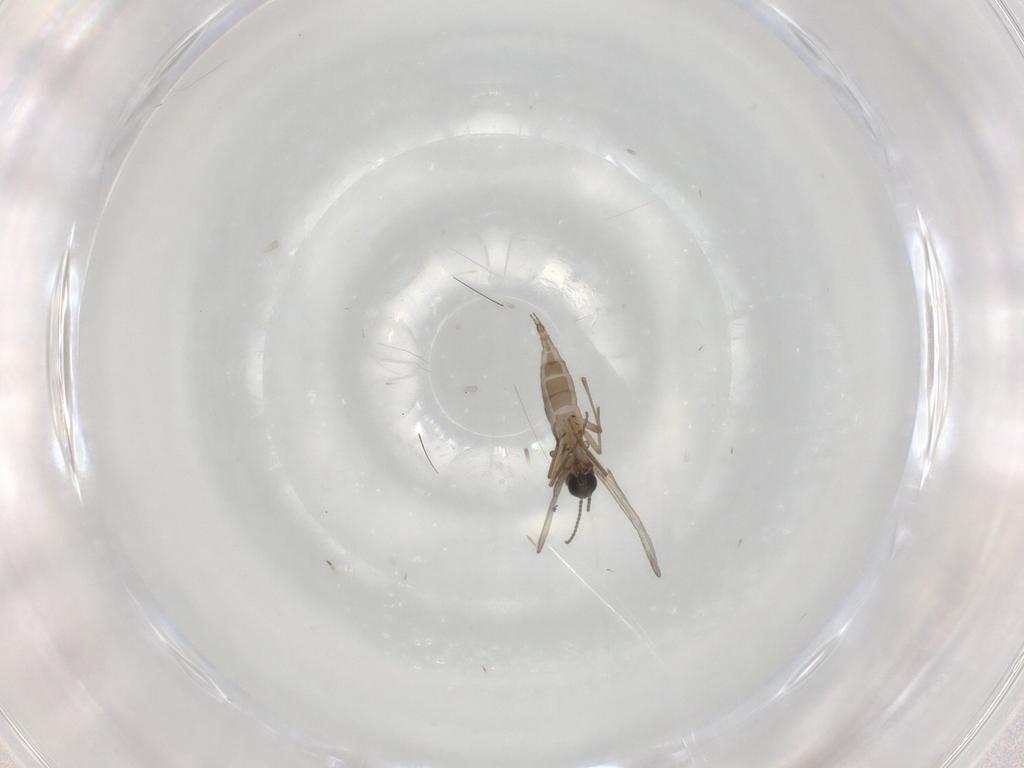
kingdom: Animalia
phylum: Arthropoda
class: Insecta
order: Diptera
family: Sciaridae
